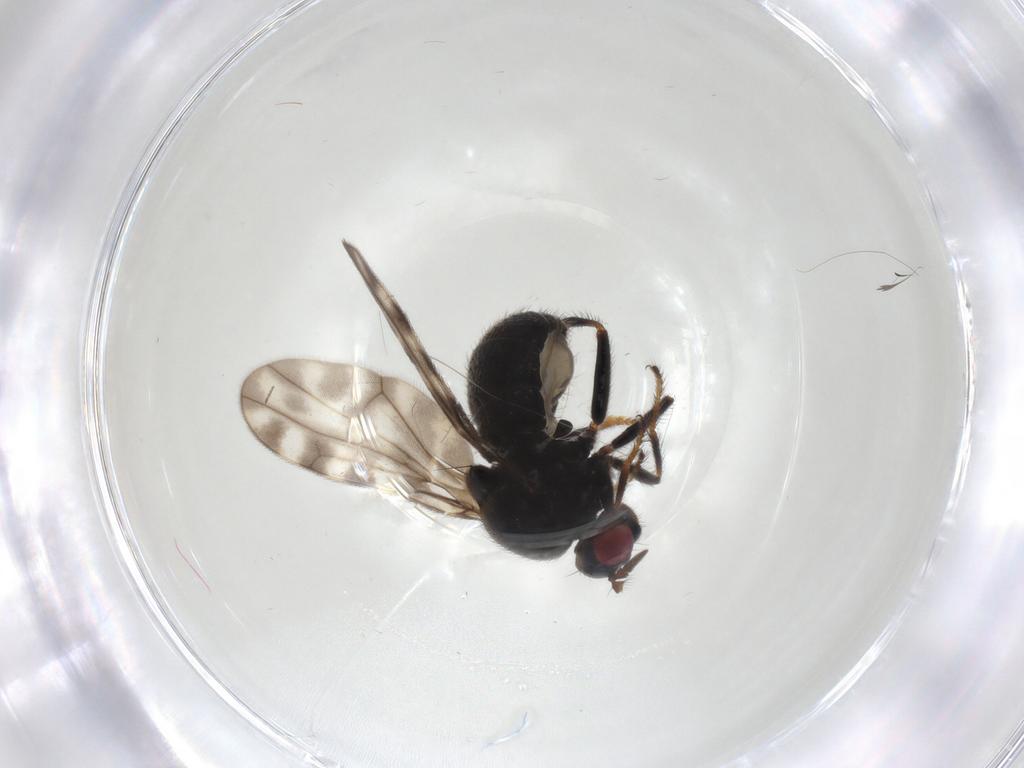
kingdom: Animalia
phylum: Arthropoda
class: Insecta
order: Diptera
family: Ephydridae
